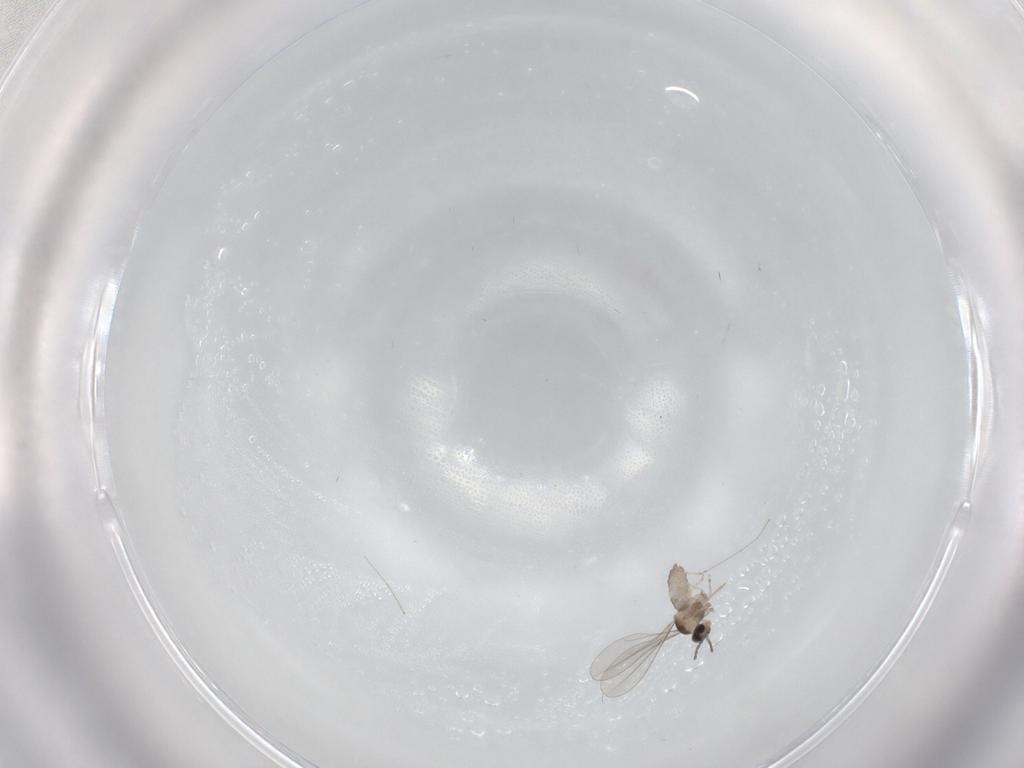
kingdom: Animalia
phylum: Arthropoda
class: Insecta
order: Diptera
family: Cecidomyiidae
